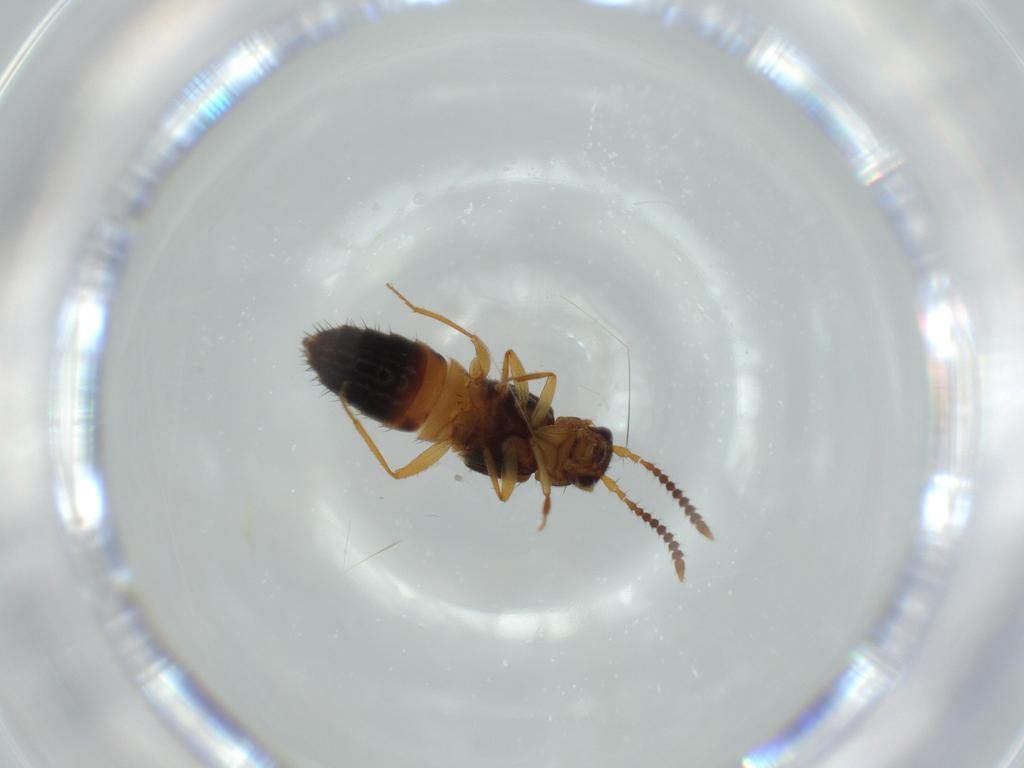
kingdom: Animalia
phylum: Arthropoda
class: Insecta
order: Coleoptera
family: Staphylinidae
